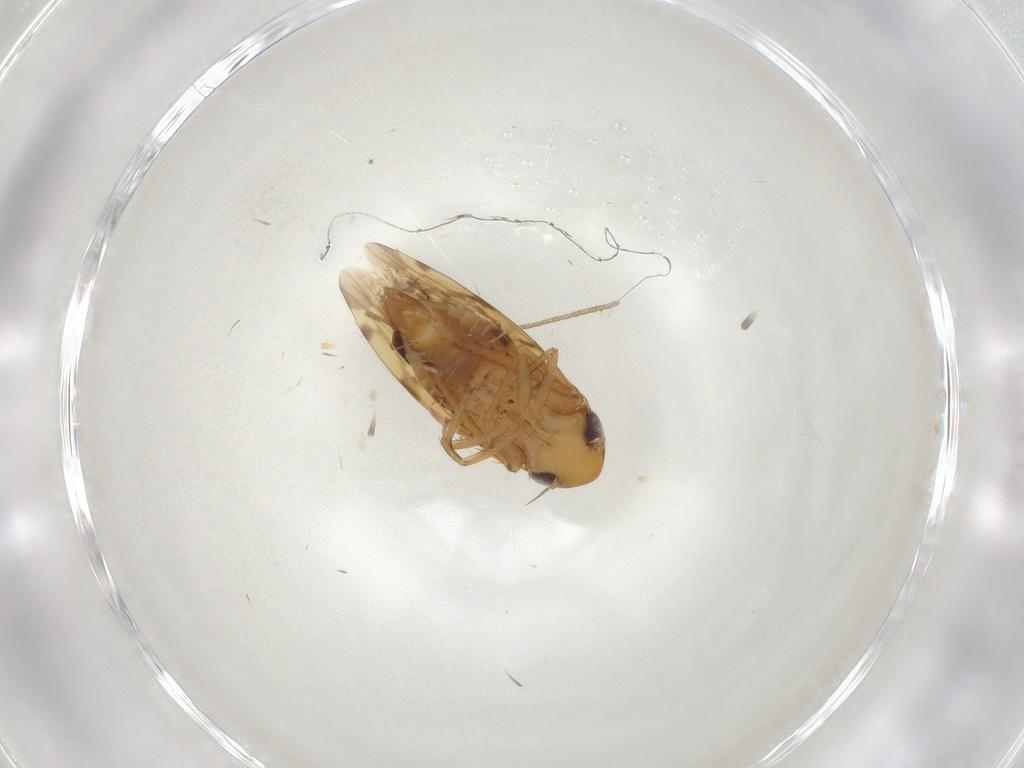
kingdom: Animalia
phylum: Arthropoda
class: Insecta
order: Hemiptera
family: Cicadellidae
